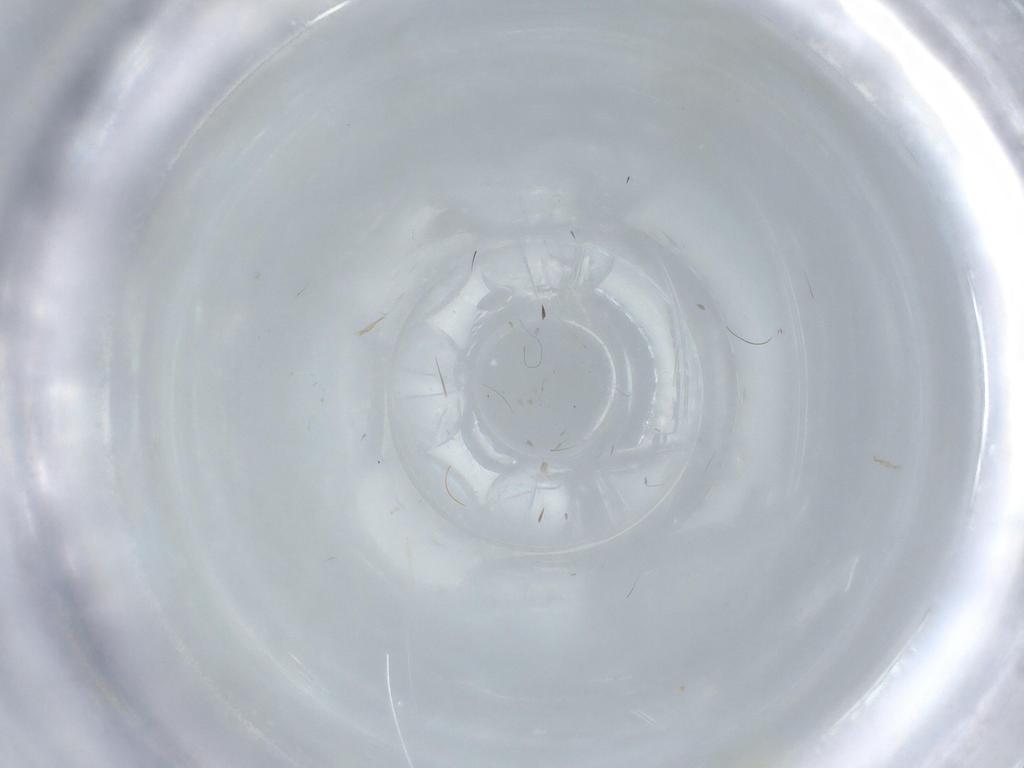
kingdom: Animalia
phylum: Arthropoda
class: Insecta
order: Diptera
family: Cecidomyiidae
